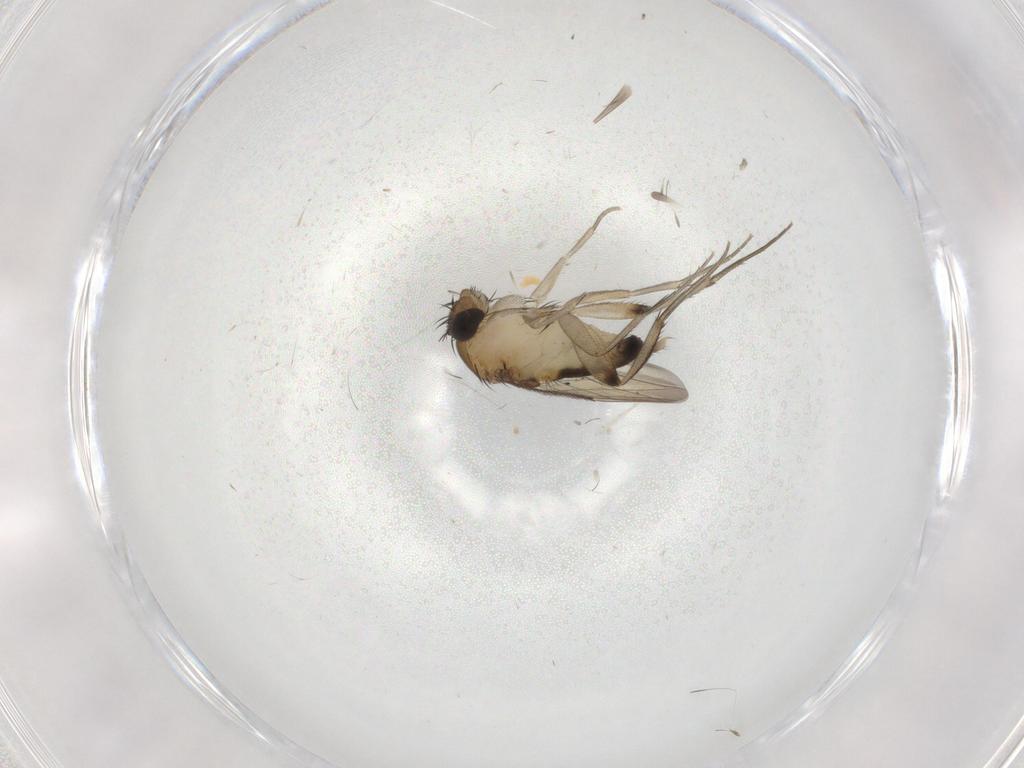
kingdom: Animalia
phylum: Arthropoda
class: Insecta
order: Diptera
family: Phoridae
